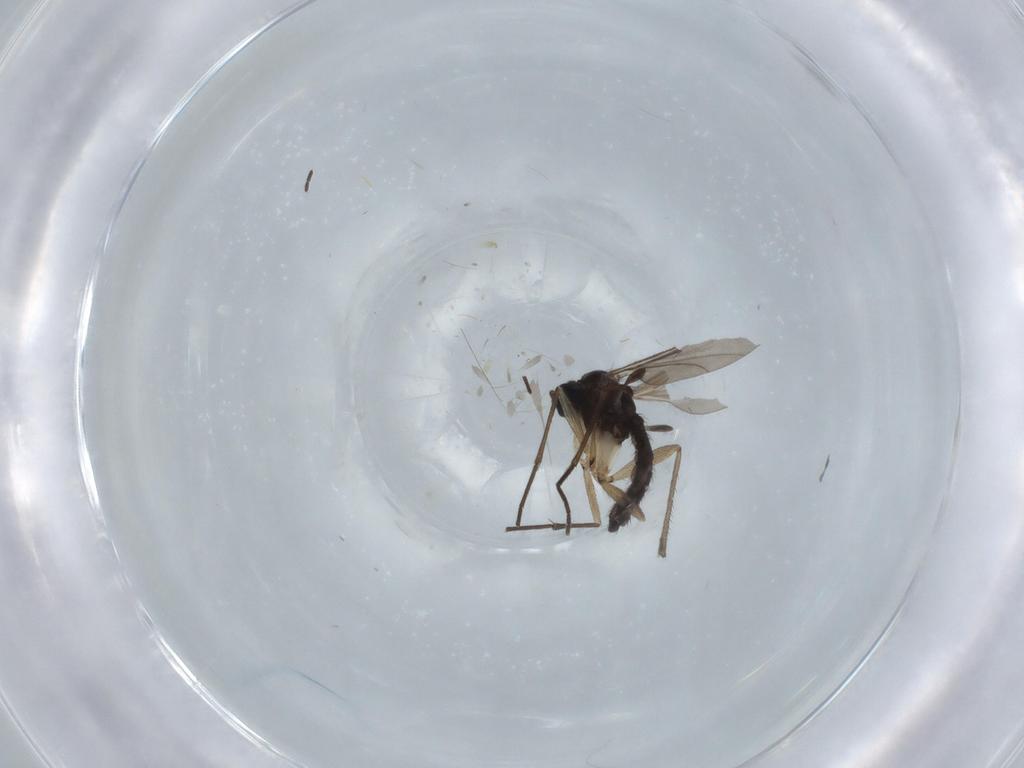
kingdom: Animalia
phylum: Arthropoda
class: Insecta
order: Diptera
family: Sciaridae
